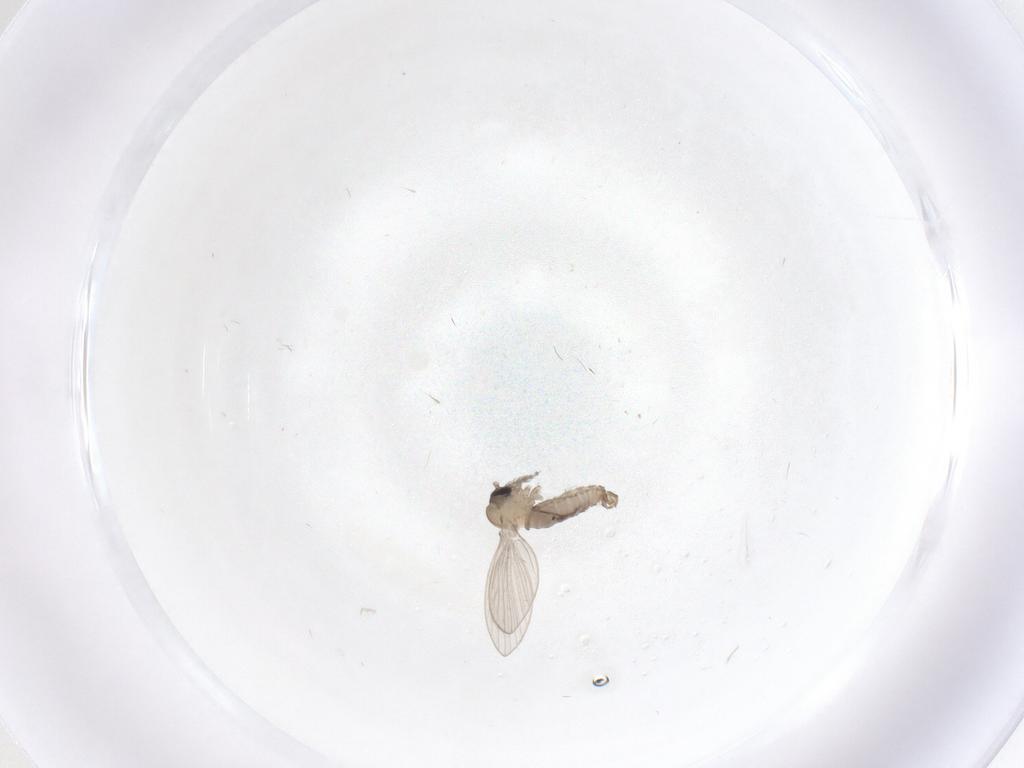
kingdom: Animalia
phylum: Arthropoda
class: Insecta
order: Diptera
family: Psychodidae
